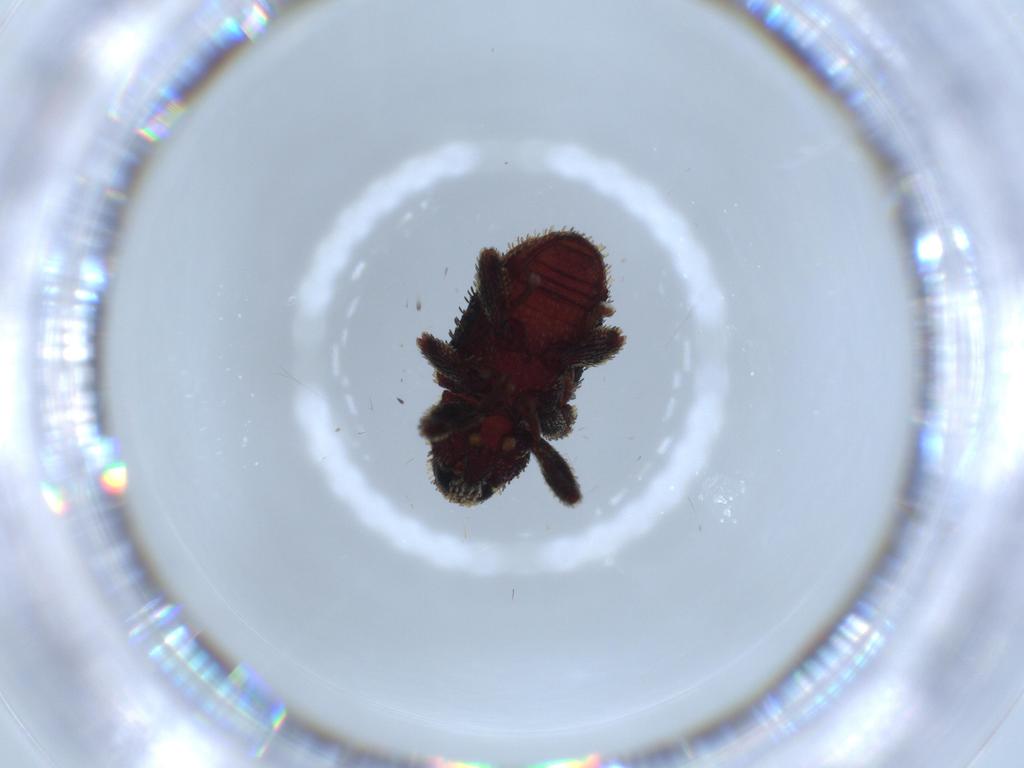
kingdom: Animalia
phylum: Arthropoda
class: Insecta
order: Coleoptera
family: Curculionidae
